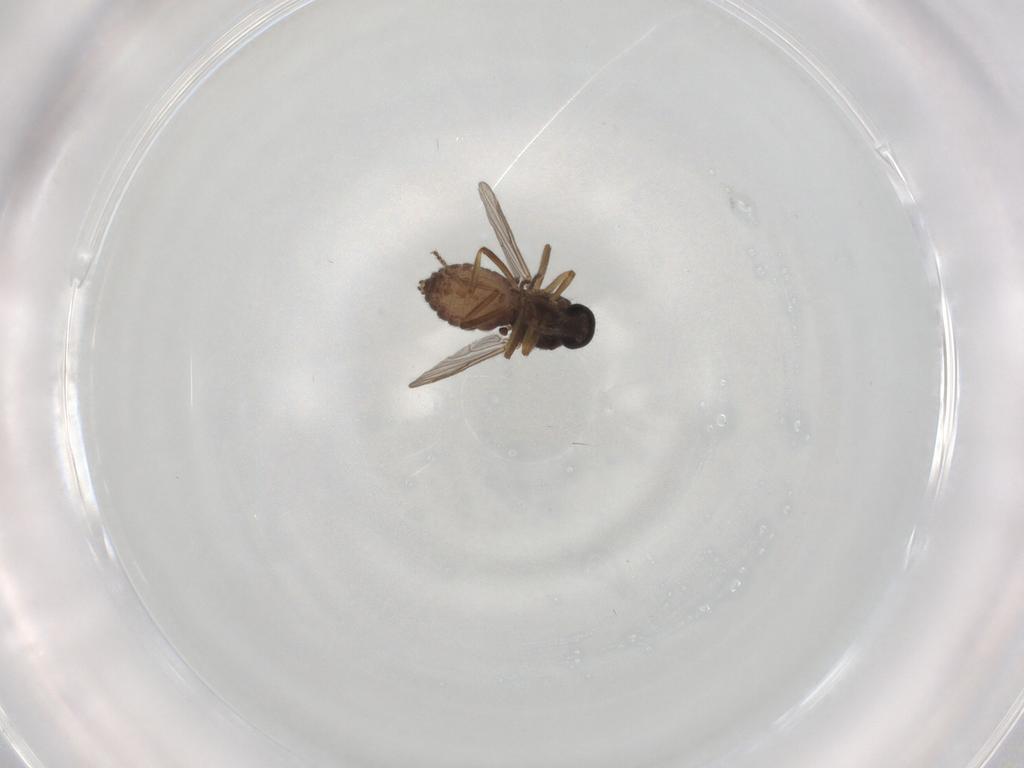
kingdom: Animalia
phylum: Arthropoda
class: Insecta
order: Diptera
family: Ceratopogonidae
